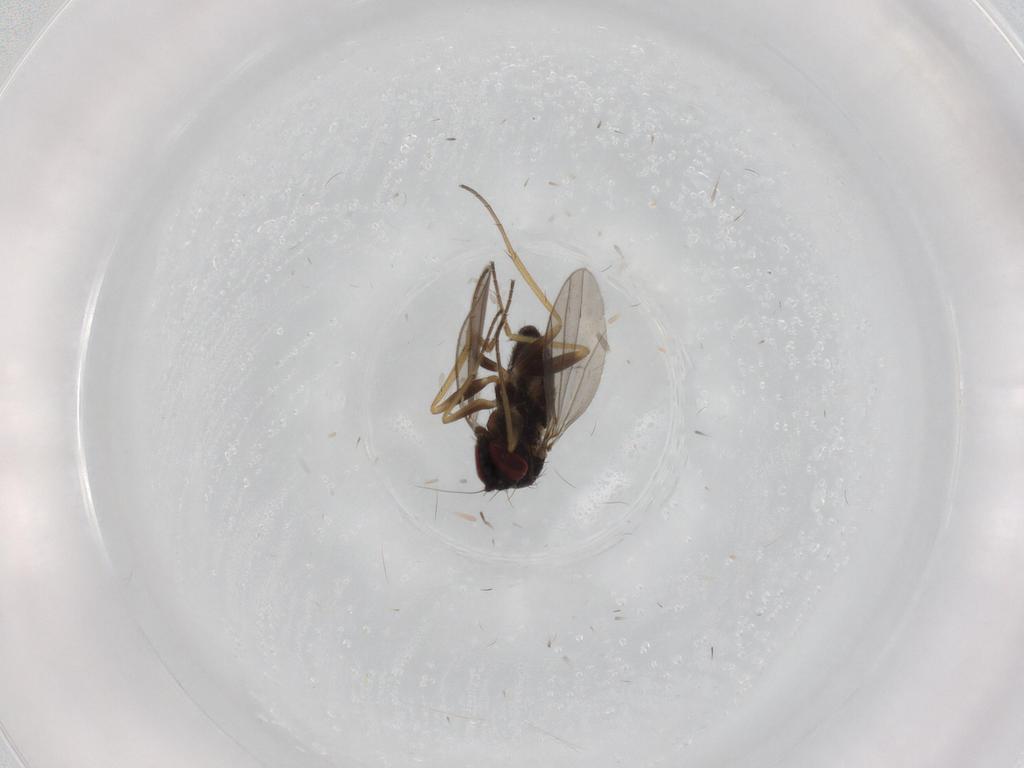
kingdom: Animalia
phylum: Arthropoda
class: Insecta
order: Diptera
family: Dolichopodidae
